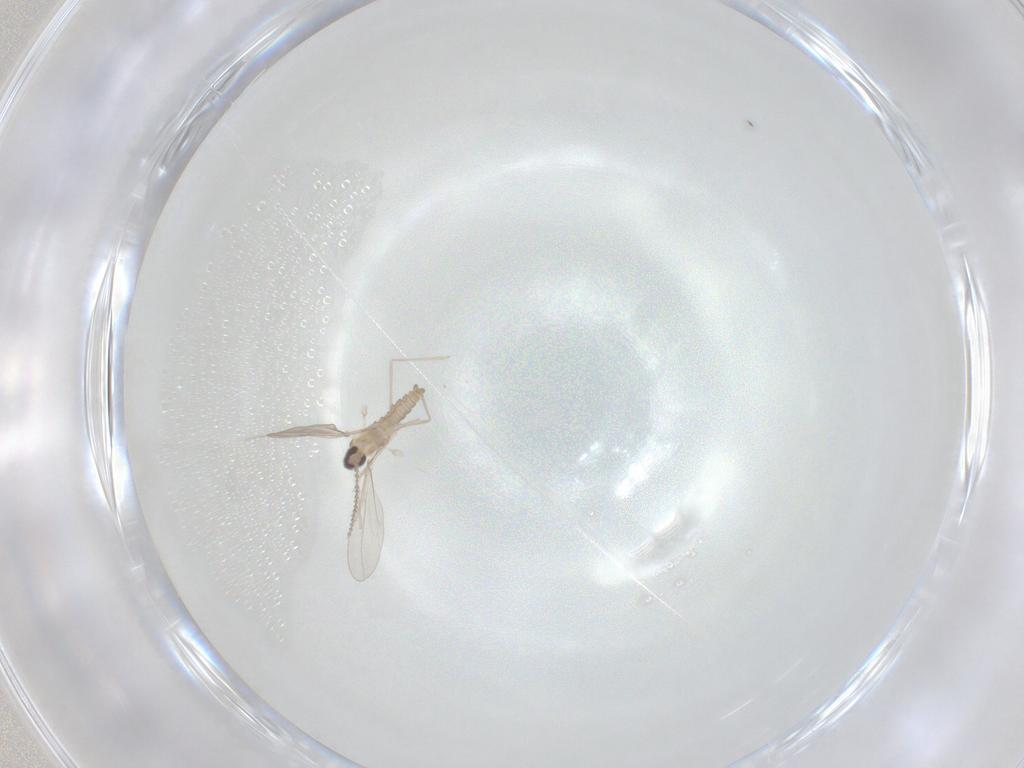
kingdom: Animalia
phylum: Arthropoda
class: Insecta
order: Diptera
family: Cecidomyiidae
